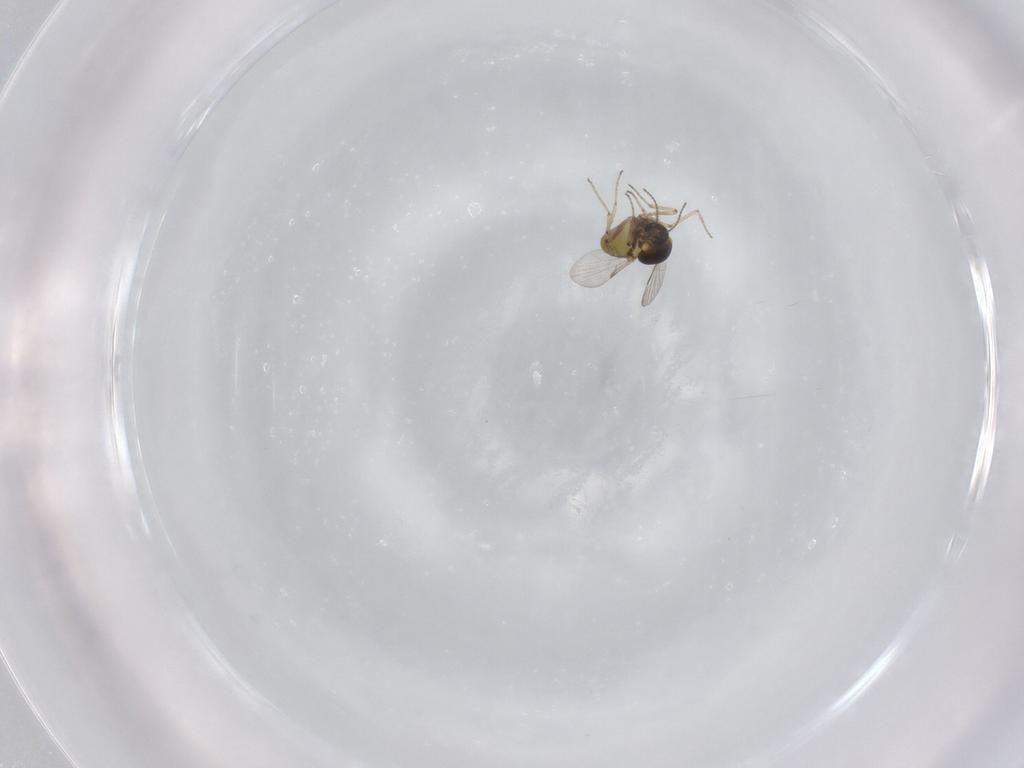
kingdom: Animalia
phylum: Arthropoda
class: Insecta
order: Diptera
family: Ceratopogonidae
